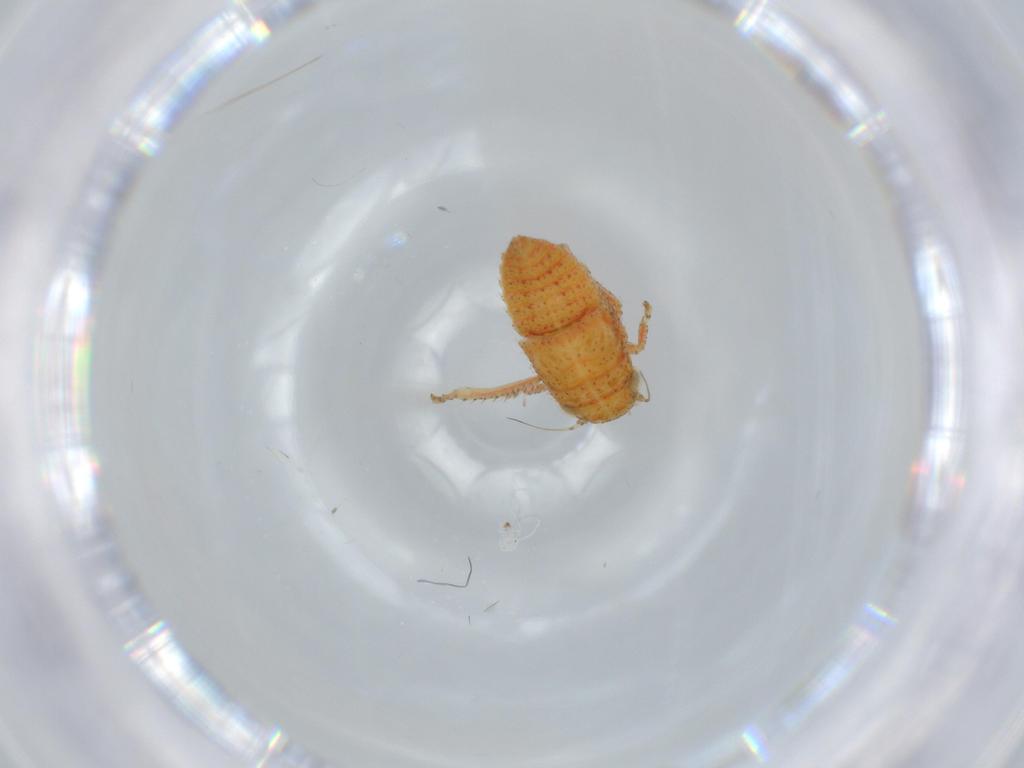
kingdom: Animalia
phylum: Arthropoda
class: Insecta
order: Hemiptera
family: Cicadellidae
